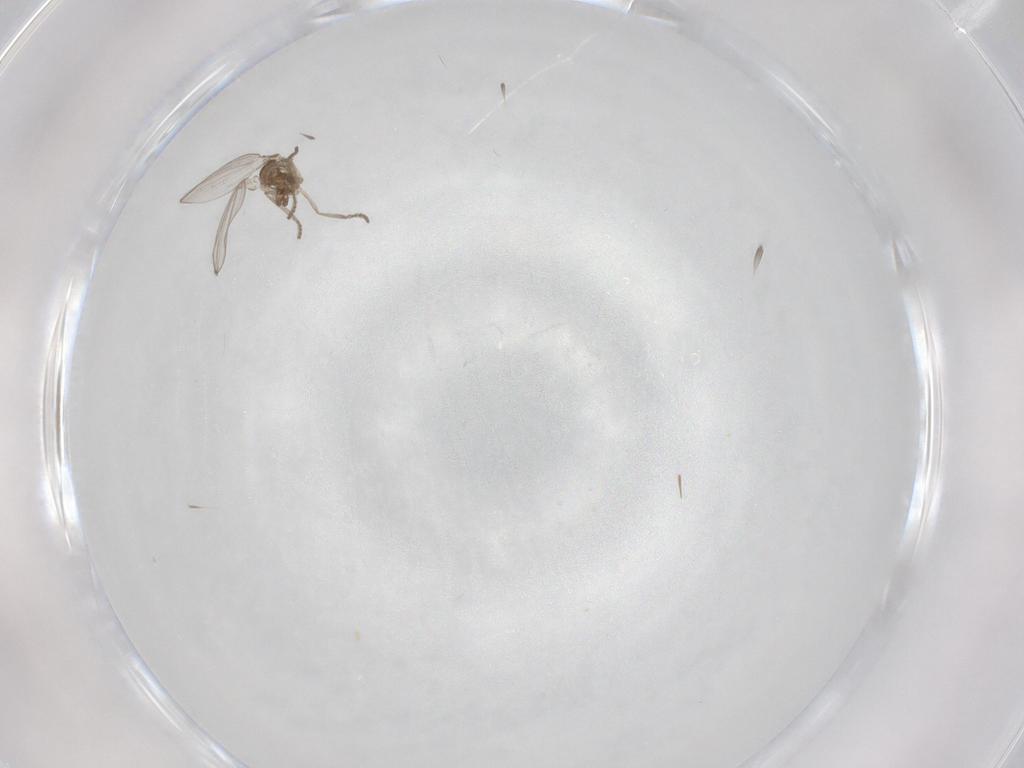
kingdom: Animalia
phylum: Arthropoda
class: Insecta
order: Diptera
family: Psychodidae
